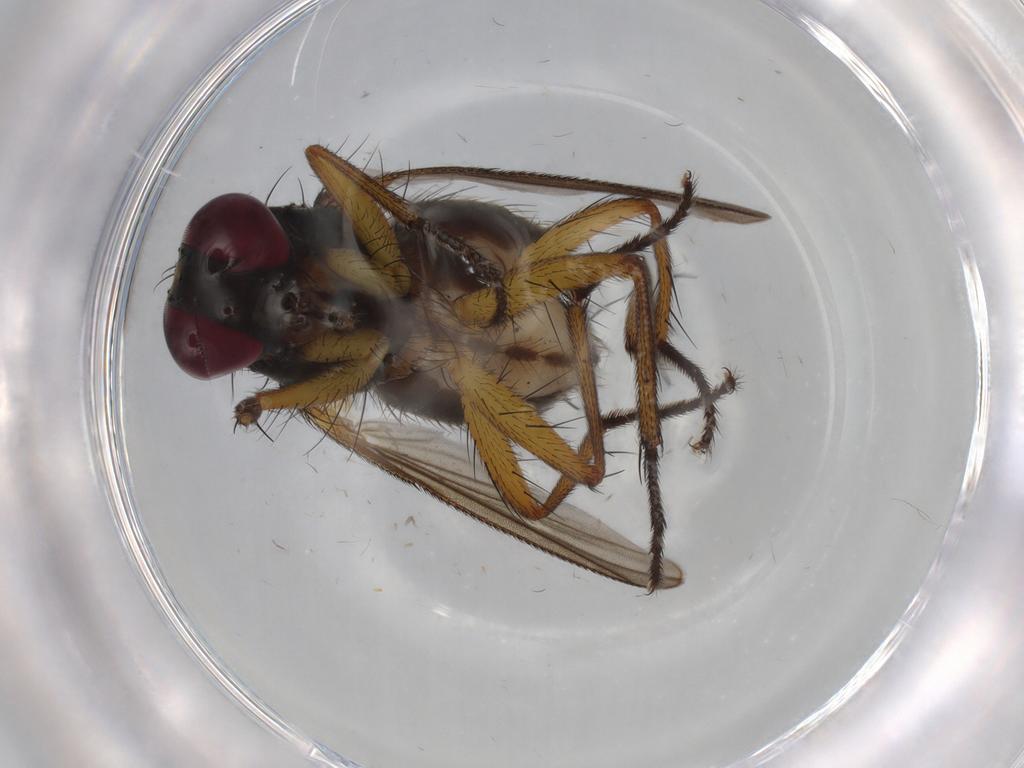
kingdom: Animalia
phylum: Arthropoda
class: Insecta
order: Diptera
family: Muscidae
